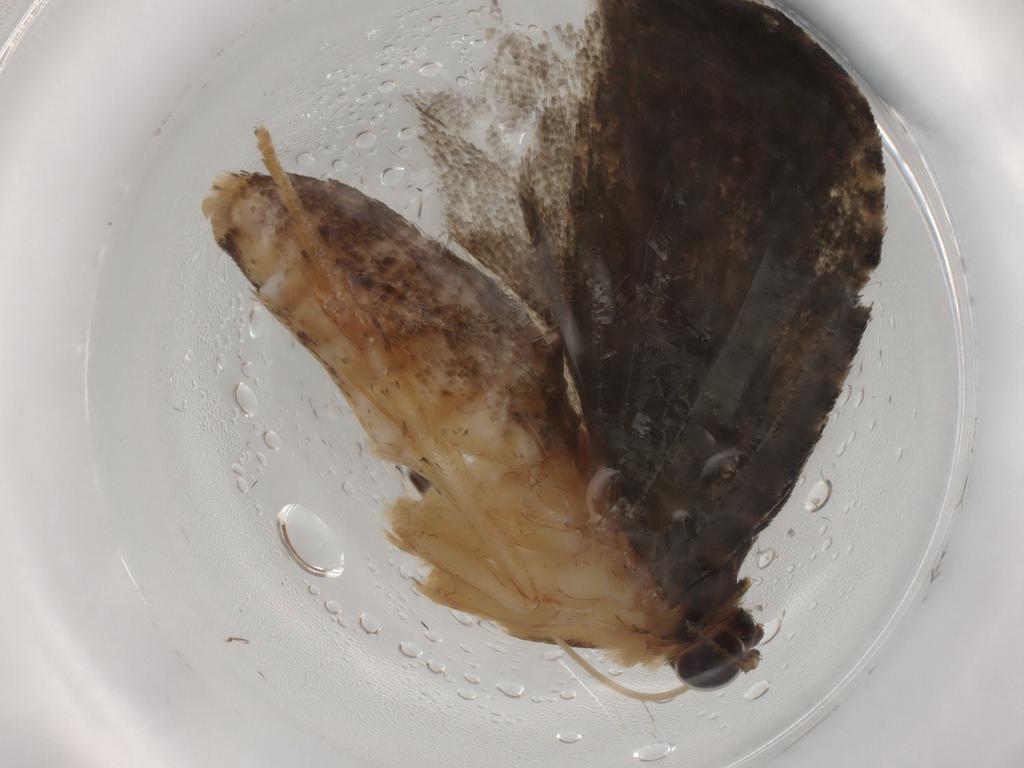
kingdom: Animalia
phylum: Arthropoda
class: Insecta
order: Lepidoptera
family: Tortricidae
